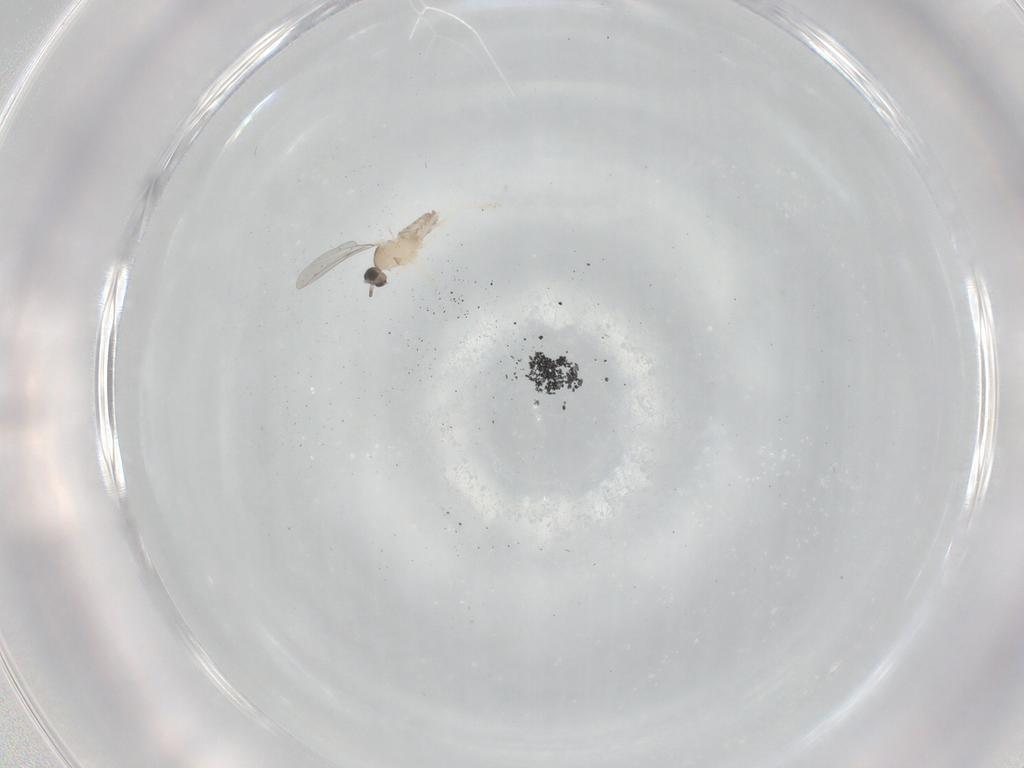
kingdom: Animalia
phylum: Arthropoda
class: Insecta
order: Diptera
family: Cecidomyiidae
